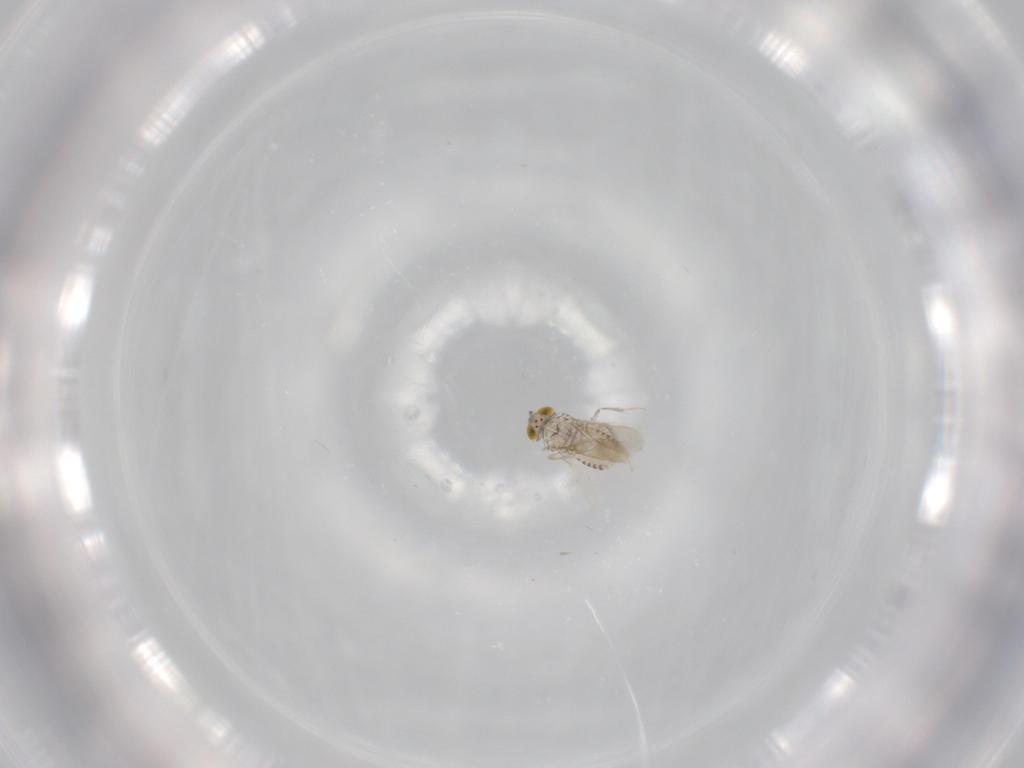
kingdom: Animalia
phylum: Arthropoda
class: Insecta
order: Hymenoptera
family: Aphelinidae
